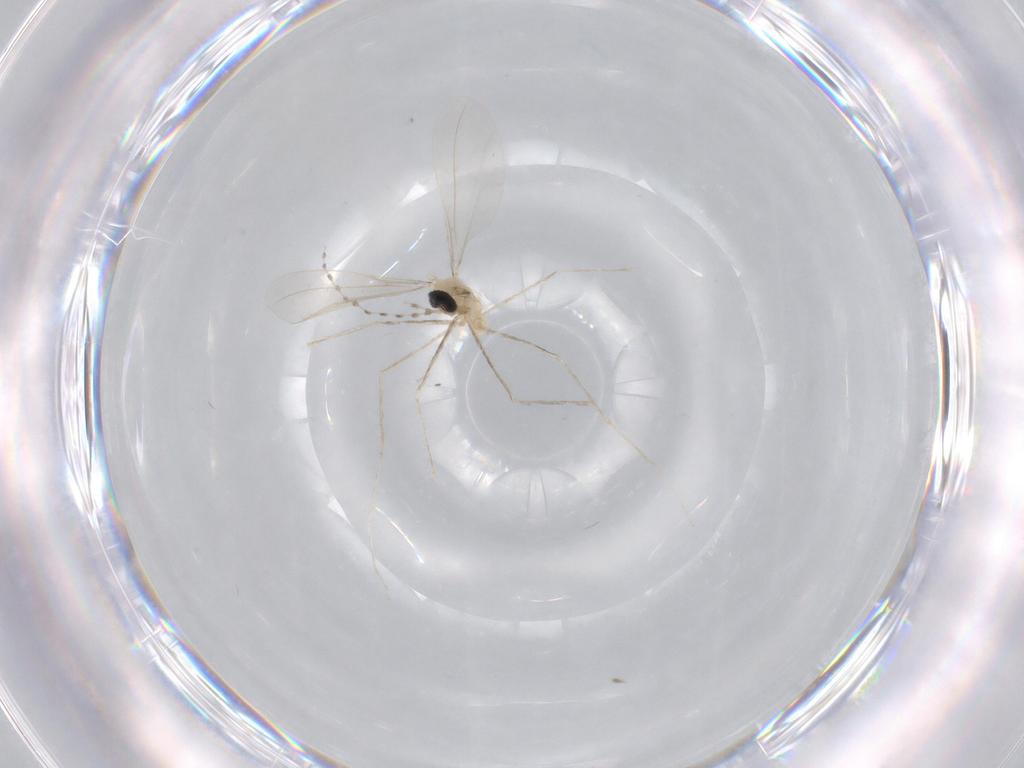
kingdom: Animalia
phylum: Arthropoda
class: Insecta
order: Diptera
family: Cecidomyiidae
